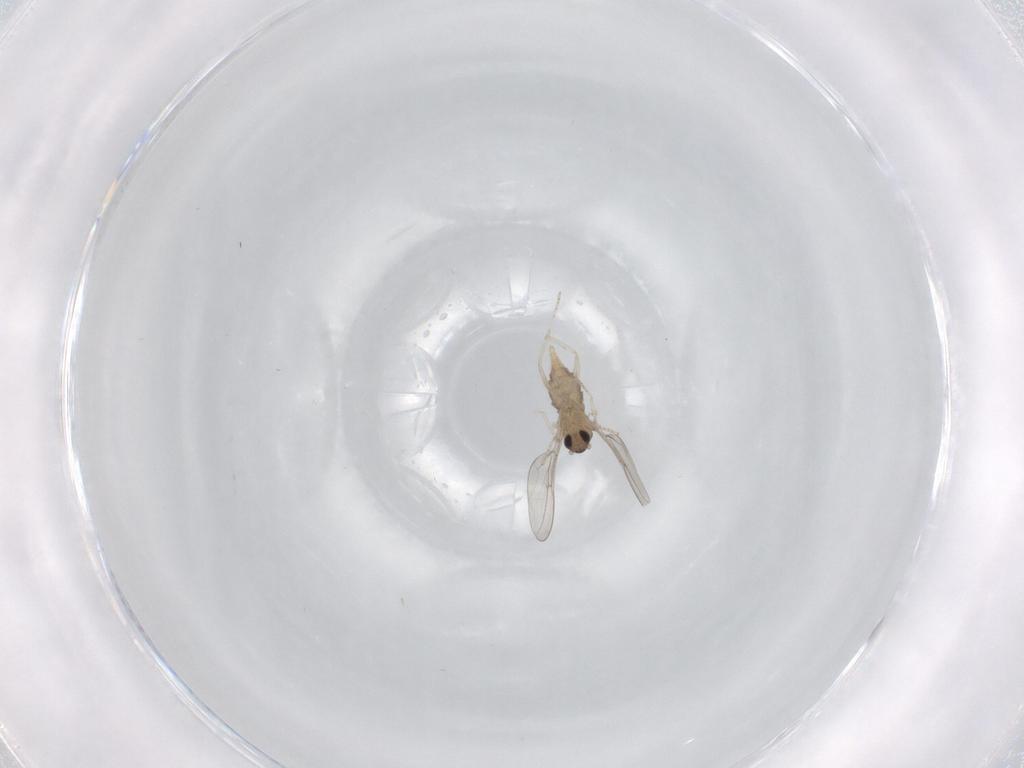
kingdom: Animalia
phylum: Arthropoda
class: Insecta
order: Diptera
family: Cecidomyiidae
